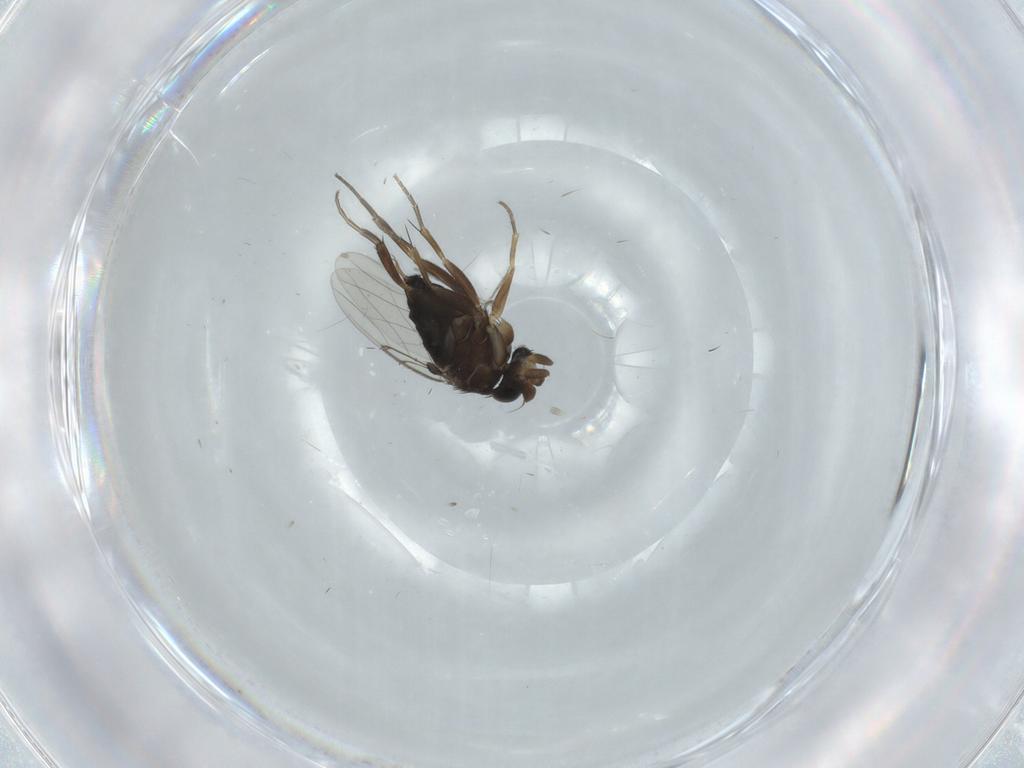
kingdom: Animalia
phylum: Arthropoda
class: Insecta
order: Diptera
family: Phoridae
